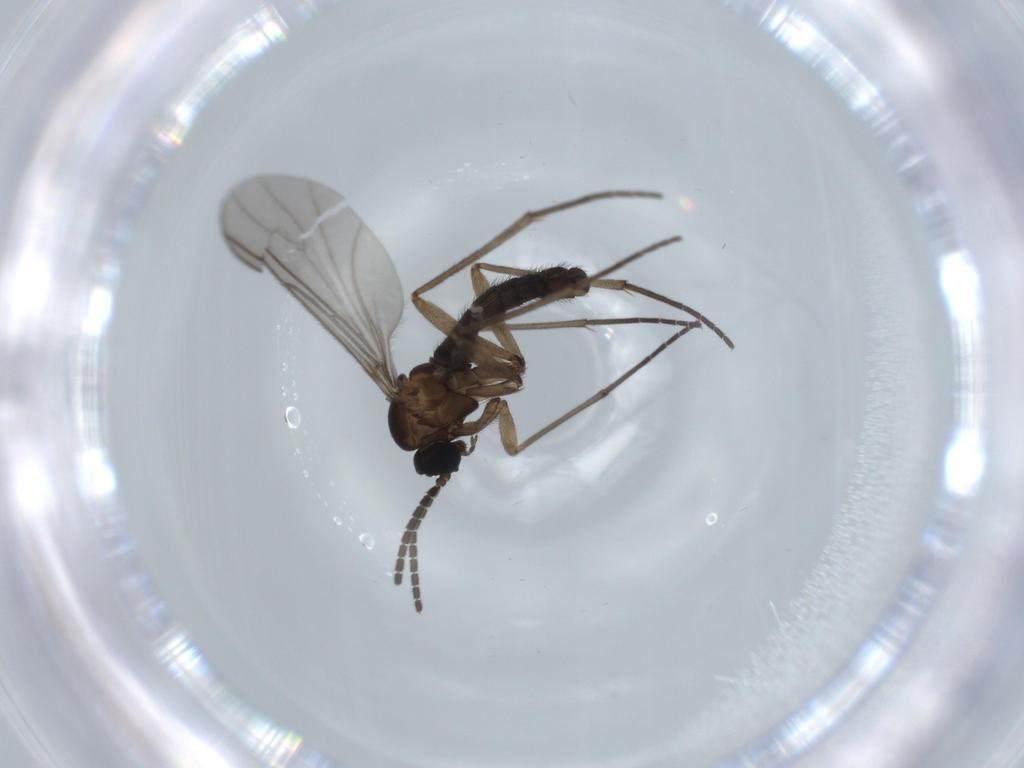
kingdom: Animalia
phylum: Arthropoda
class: Insecta
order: Diptera
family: Sciaridae
